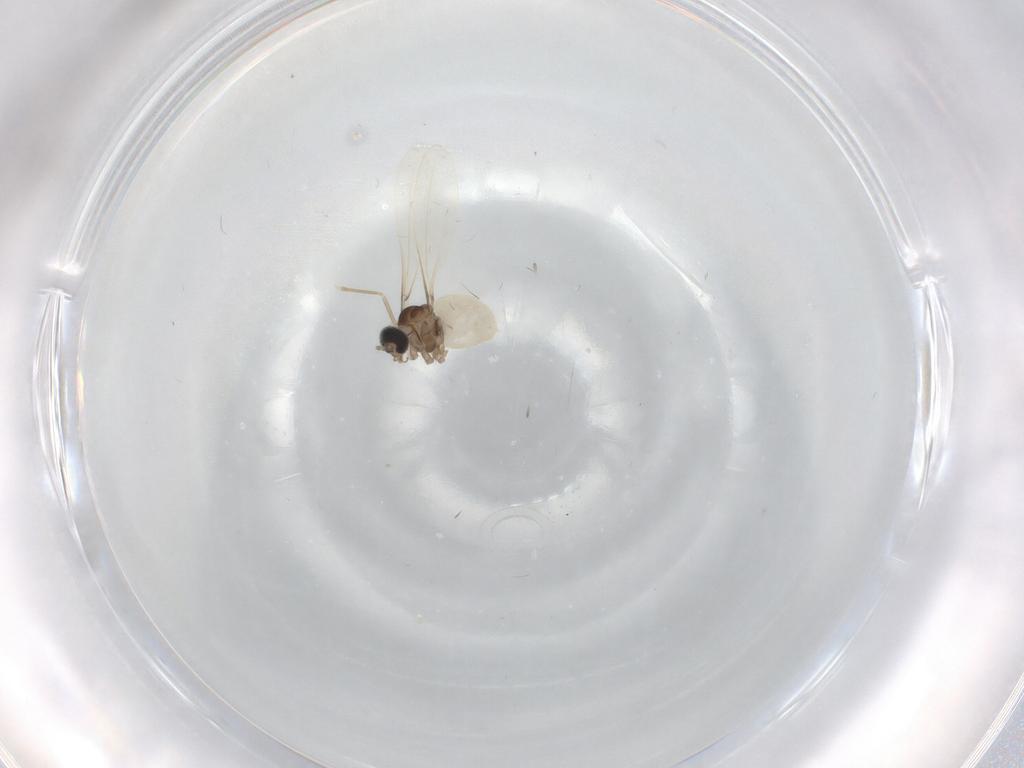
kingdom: Animalia
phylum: Arthropoda
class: Insecta
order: Diptera
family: Cecidomyiidae
